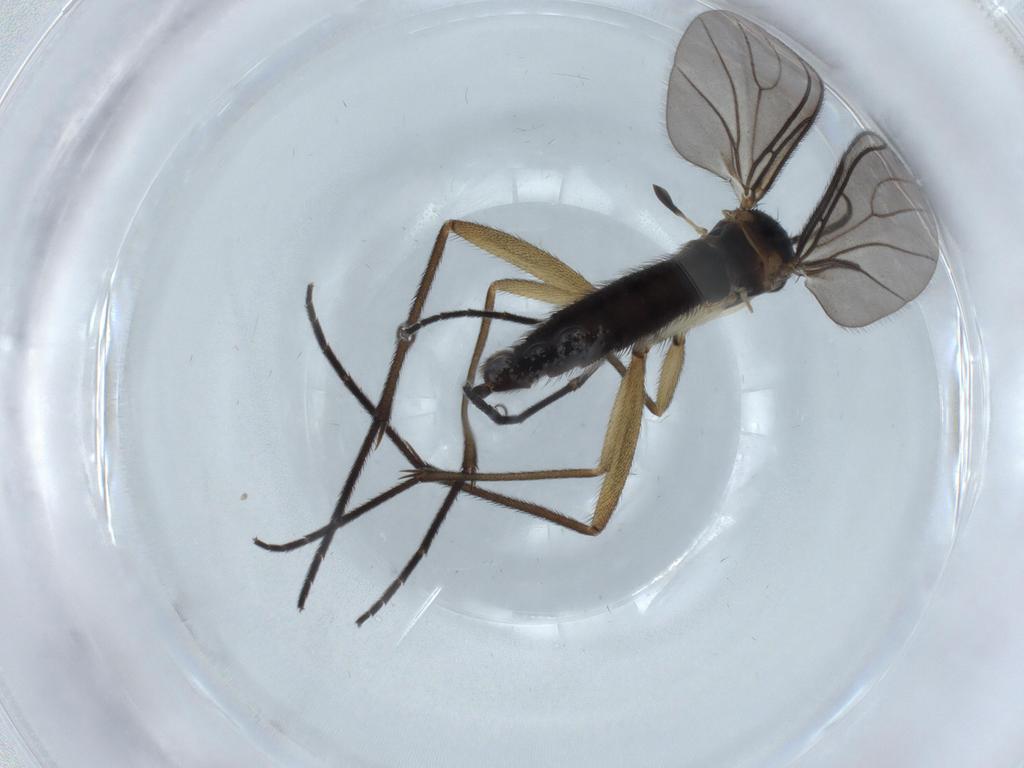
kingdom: Animalia
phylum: Arthropoda
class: Insecta
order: Diptera
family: Sciaridae
